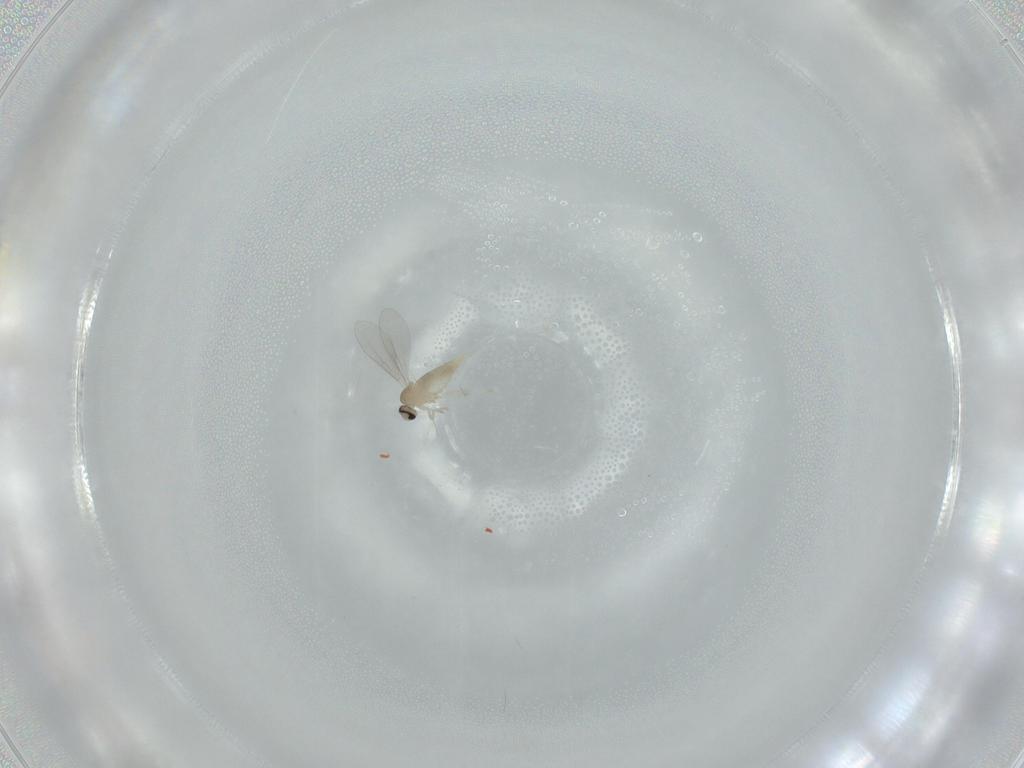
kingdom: Animalia
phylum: Arthropoda
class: Insecta
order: Diptera
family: Cecidomyiidae
